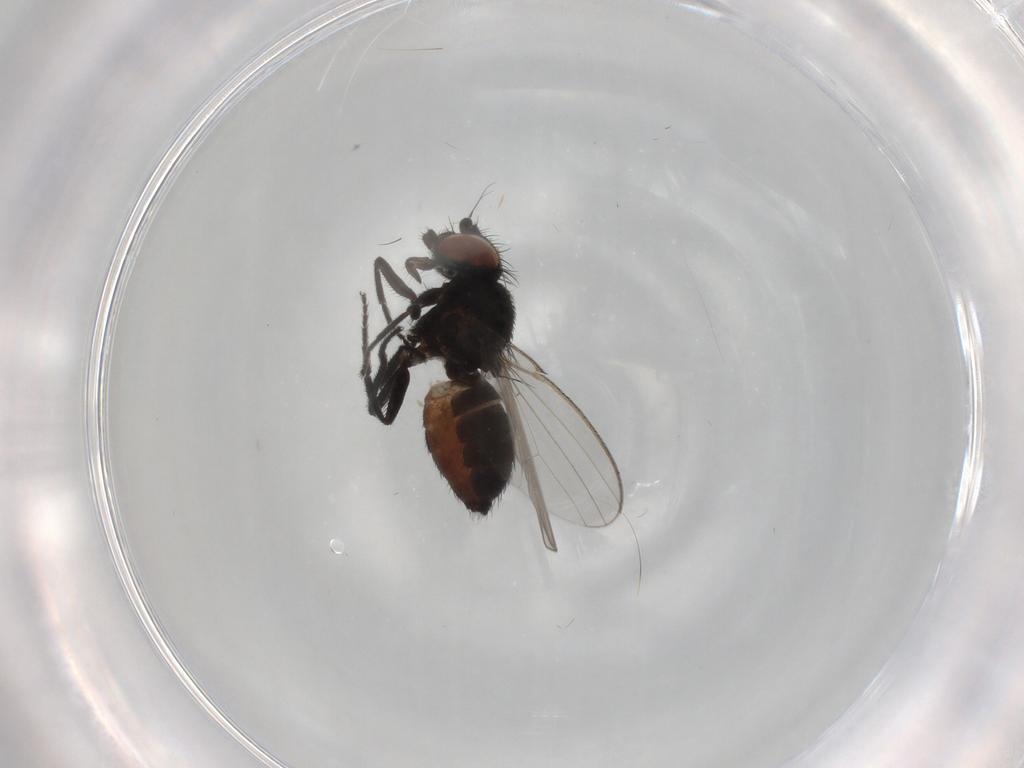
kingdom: Animalia
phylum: Arthropoda
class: Insecta
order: Diptera
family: Milichiidae
